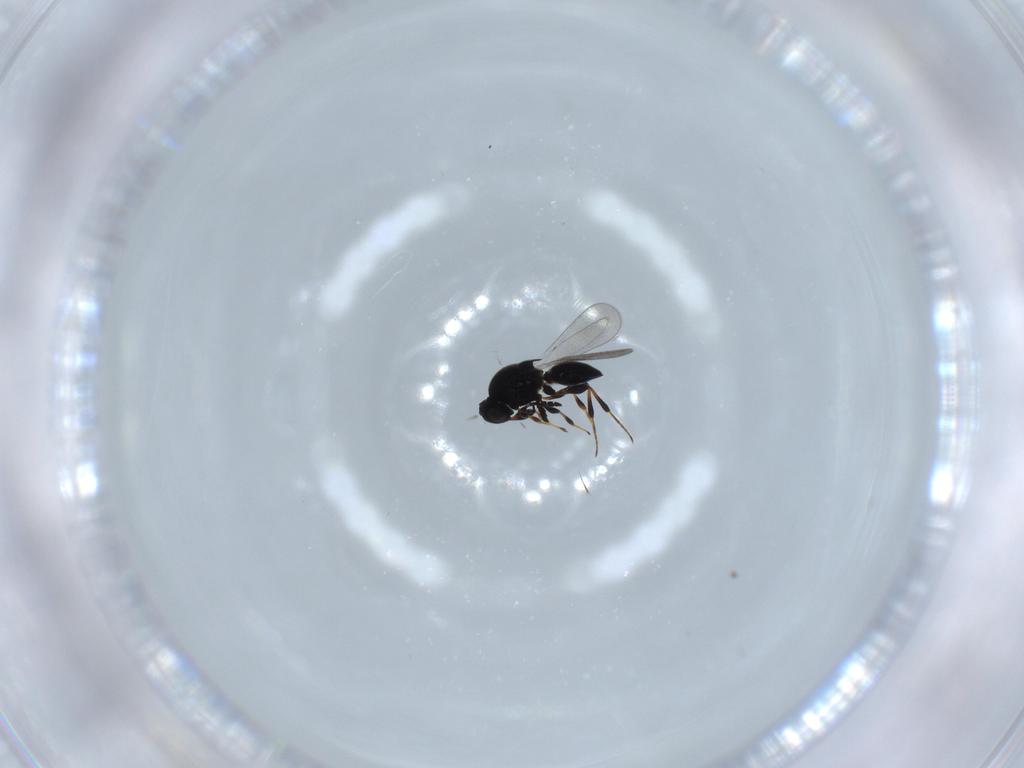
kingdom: Animalia
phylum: Arthropoda
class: Insecta
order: Hymenoptera
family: Platygastridae
